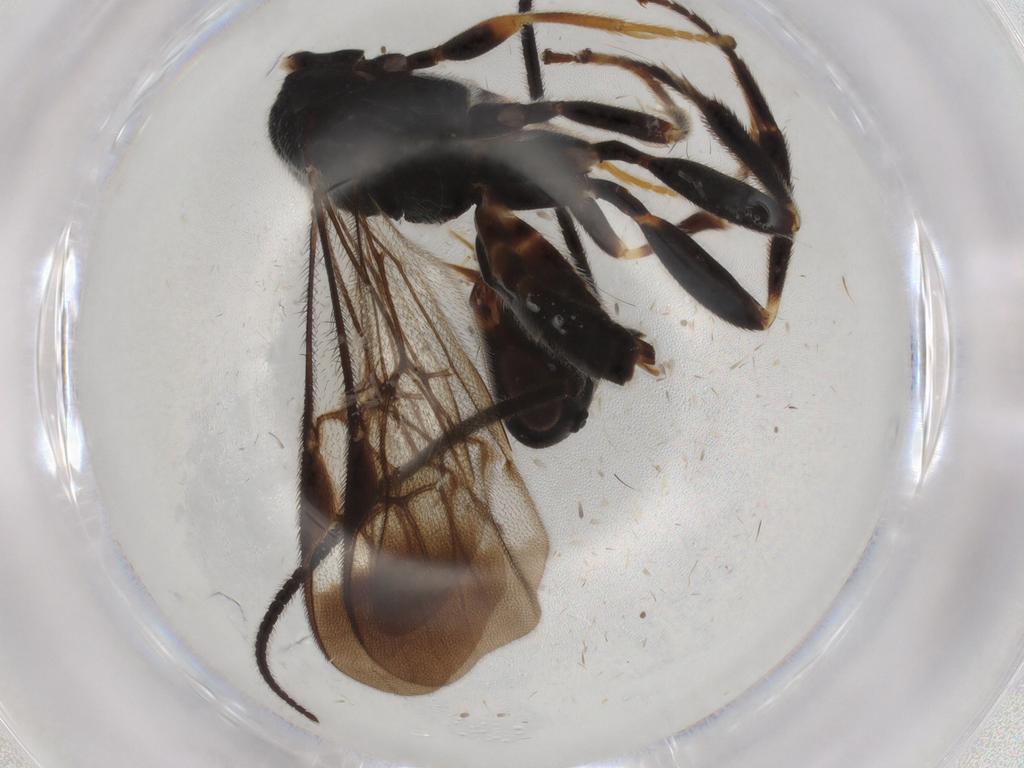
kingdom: Animalia
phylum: Arthropoda
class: Insecta
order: Hymenoptera
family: Braconidae
